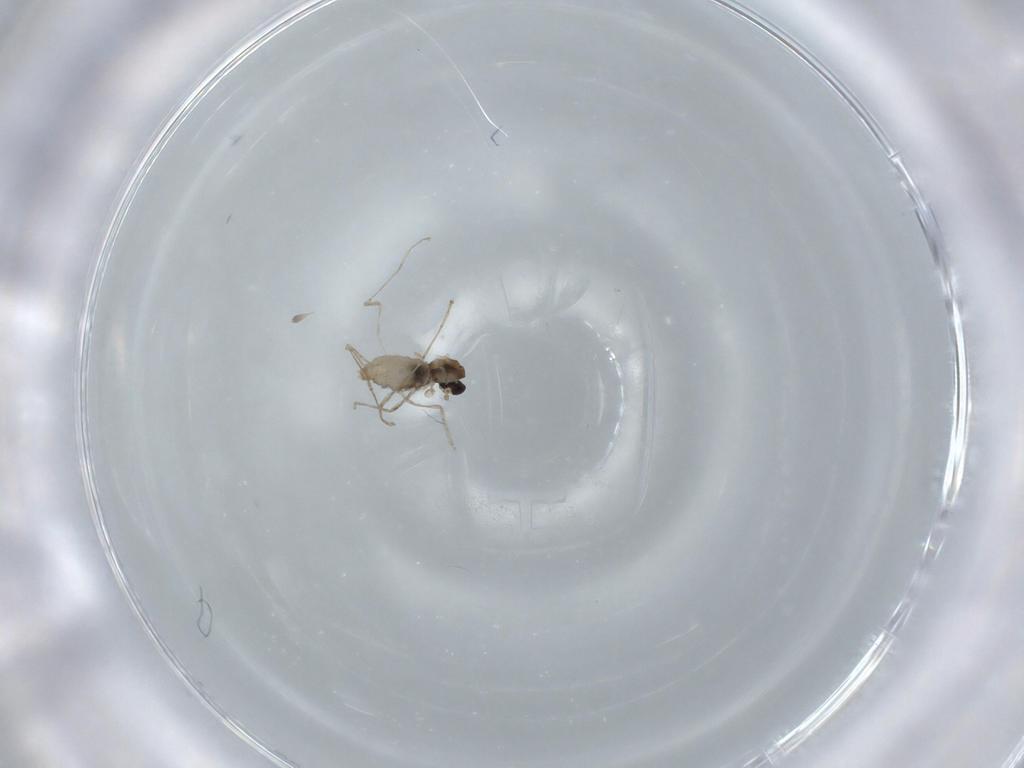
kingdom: Animalia
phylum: Arthropoda
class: Insecta
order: Diptera
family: Cecidomyiidae
